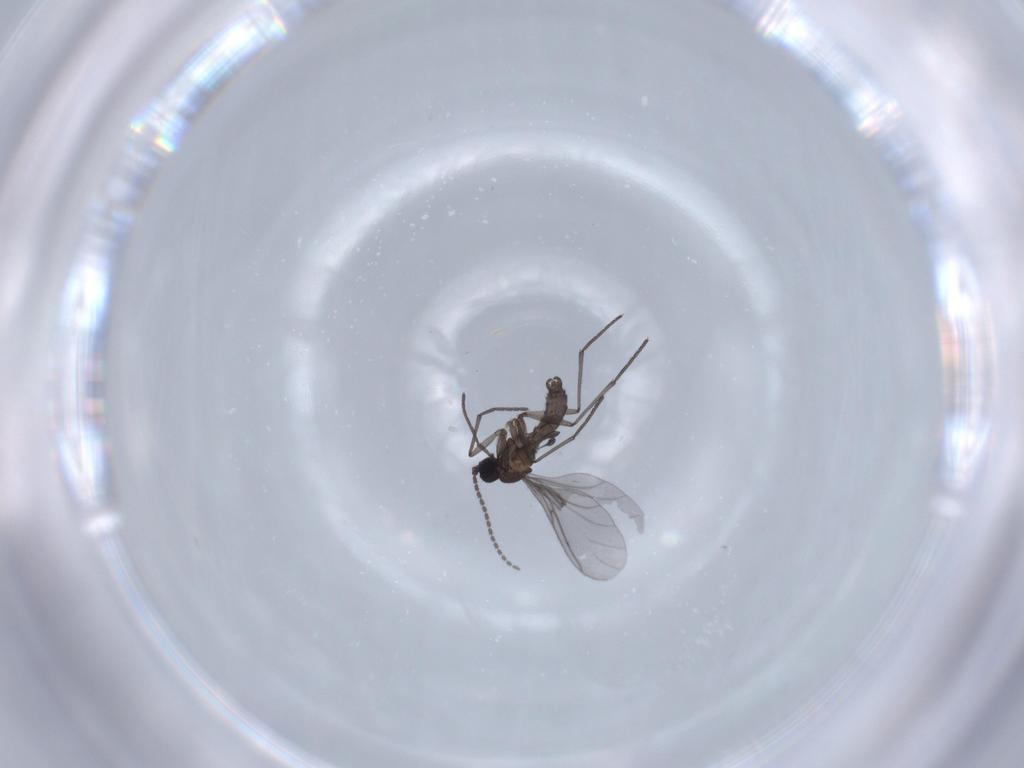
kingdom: Animalia
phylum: Arthropoda
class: Insecta
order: Diptera
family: Sciaridae
